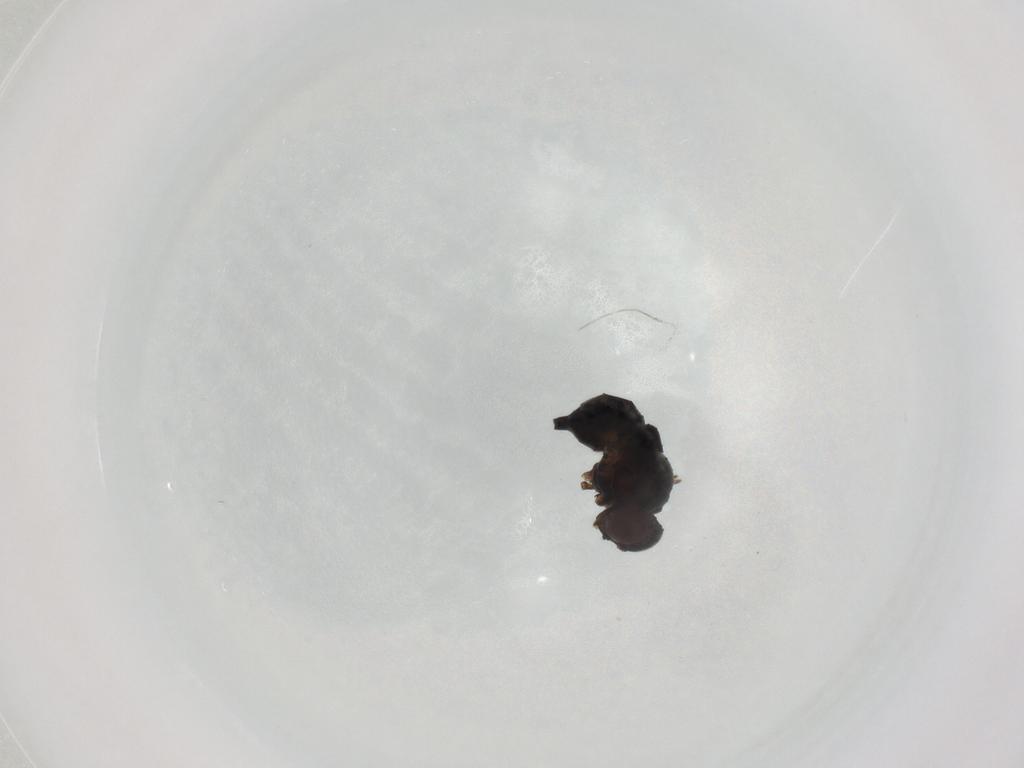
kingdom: Animalia
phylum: Arthropoda
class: Insecta
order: Diptera
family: Agromyzidae
